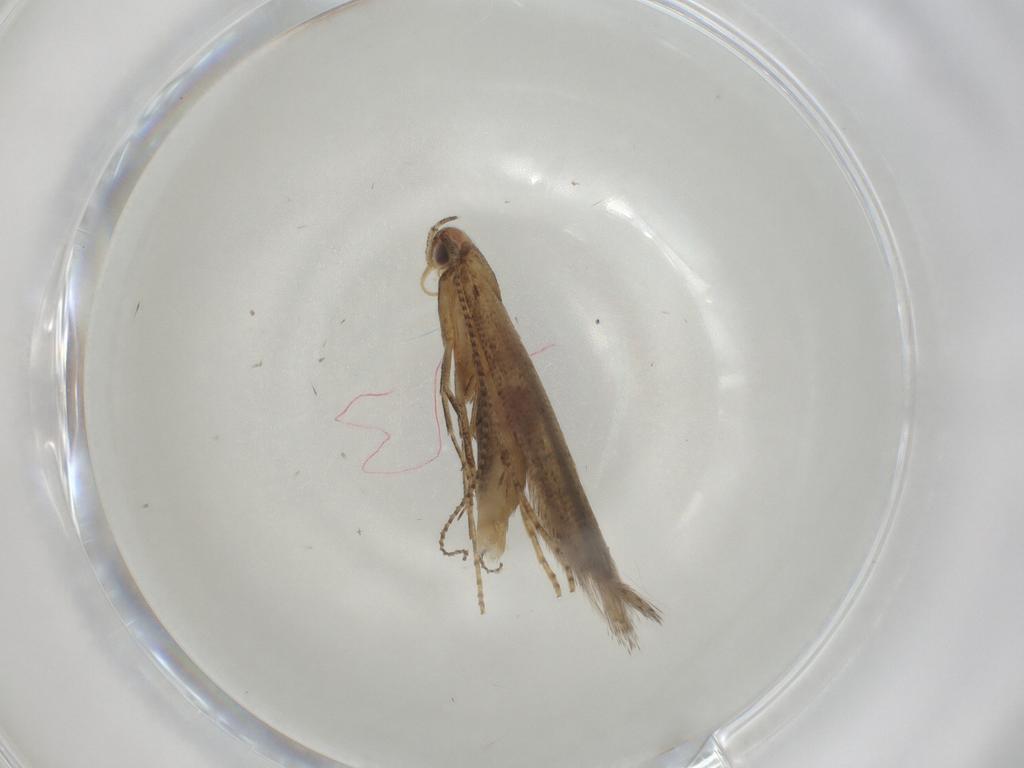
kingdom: Animalia
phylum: Arthropoda
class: Insecta
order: Lepidoptera
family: Elachistidae
